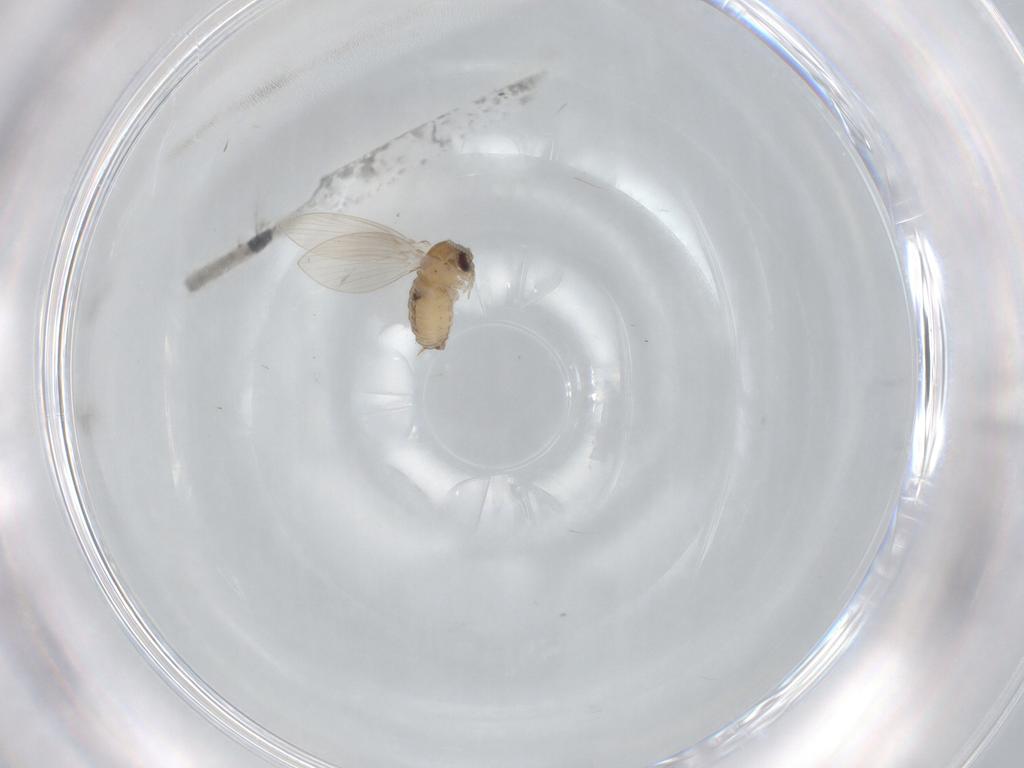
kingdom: Animalia
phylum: Arthropoda
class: Insecta
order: Diptera
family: Psychodidae
